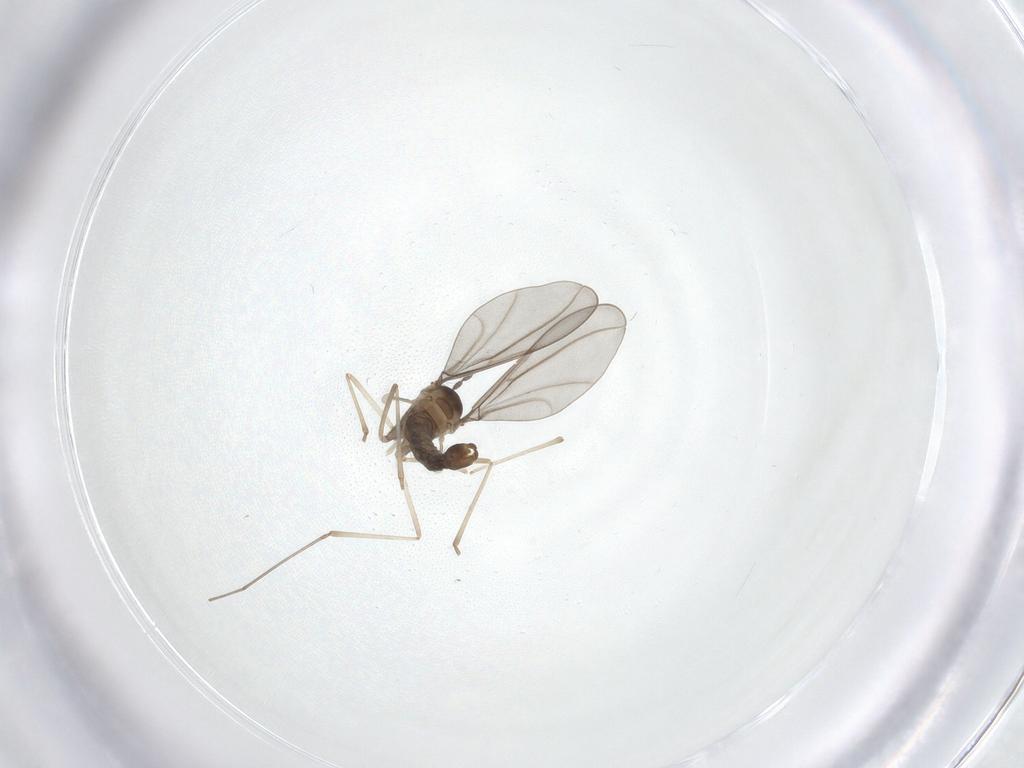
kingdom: Animalia
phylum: Arthropoda
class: Insecta
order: Diptera
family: Cecidomyiidae
